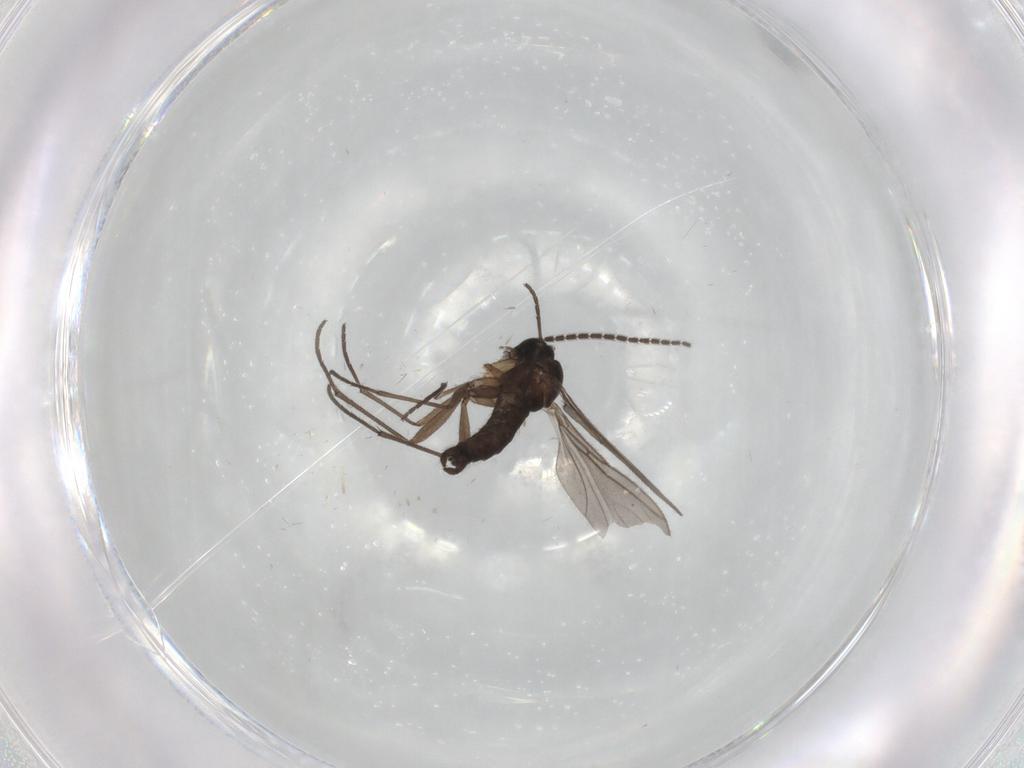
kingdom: Animalia
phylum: Arthropoda
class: Insecta
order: Diptera
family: Sciaridae
